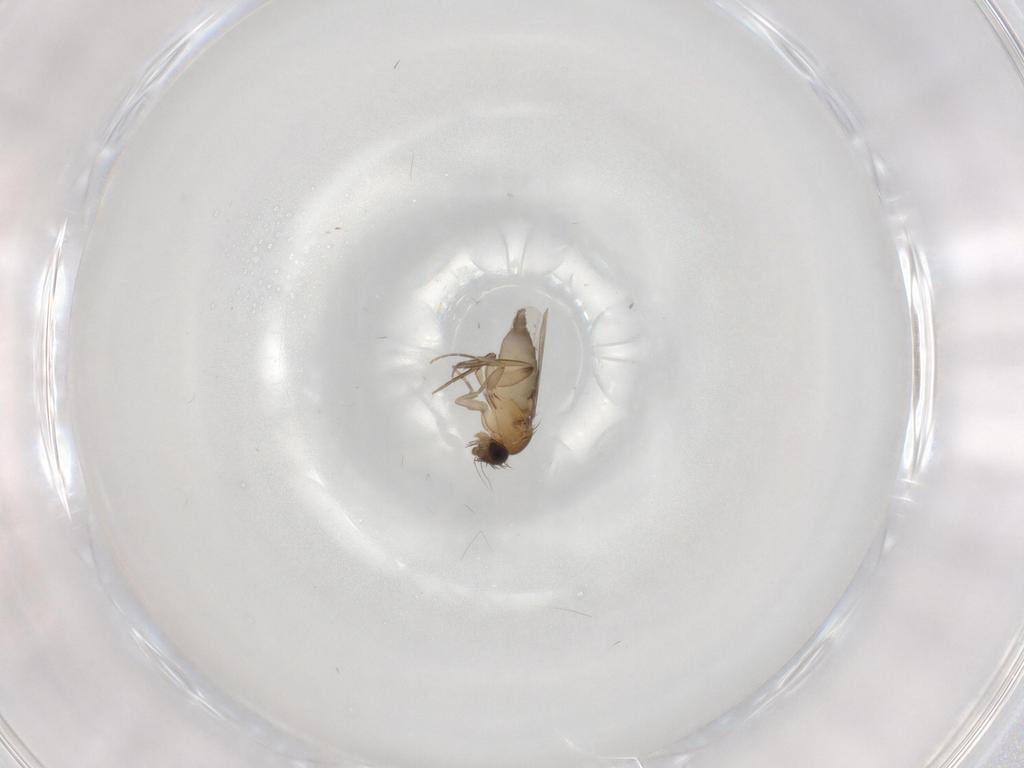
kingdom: Animalia
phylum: Arthropoda
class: Insecta
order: Diptera
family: Phoridae
